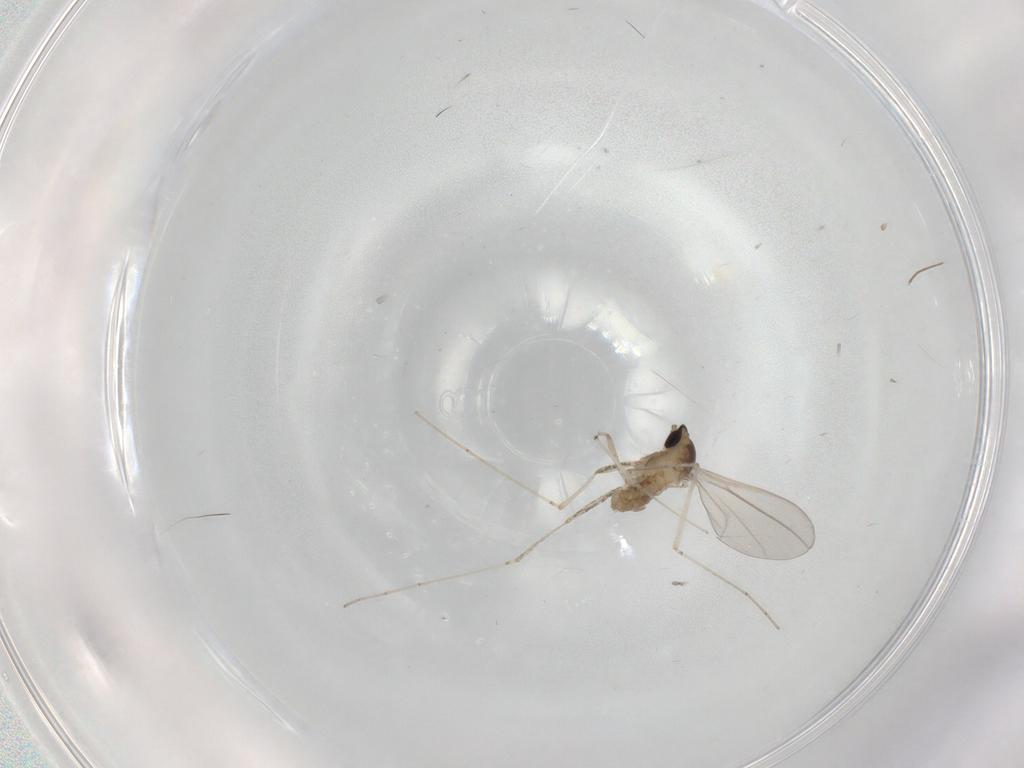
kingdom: Animalia
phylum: Arthropoda
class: Insecta
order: Diptera
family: Cecidomyiidae
